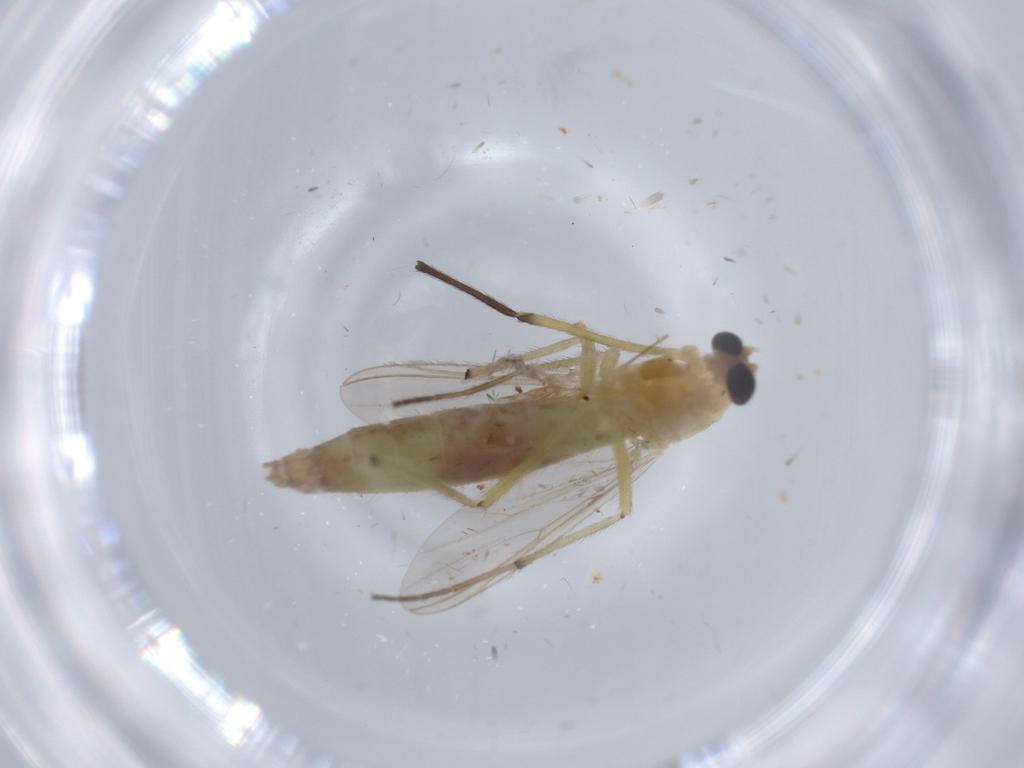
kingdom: Animalia
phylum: Arthropoda
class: Insecta
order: Diptera
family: Chironomidae
